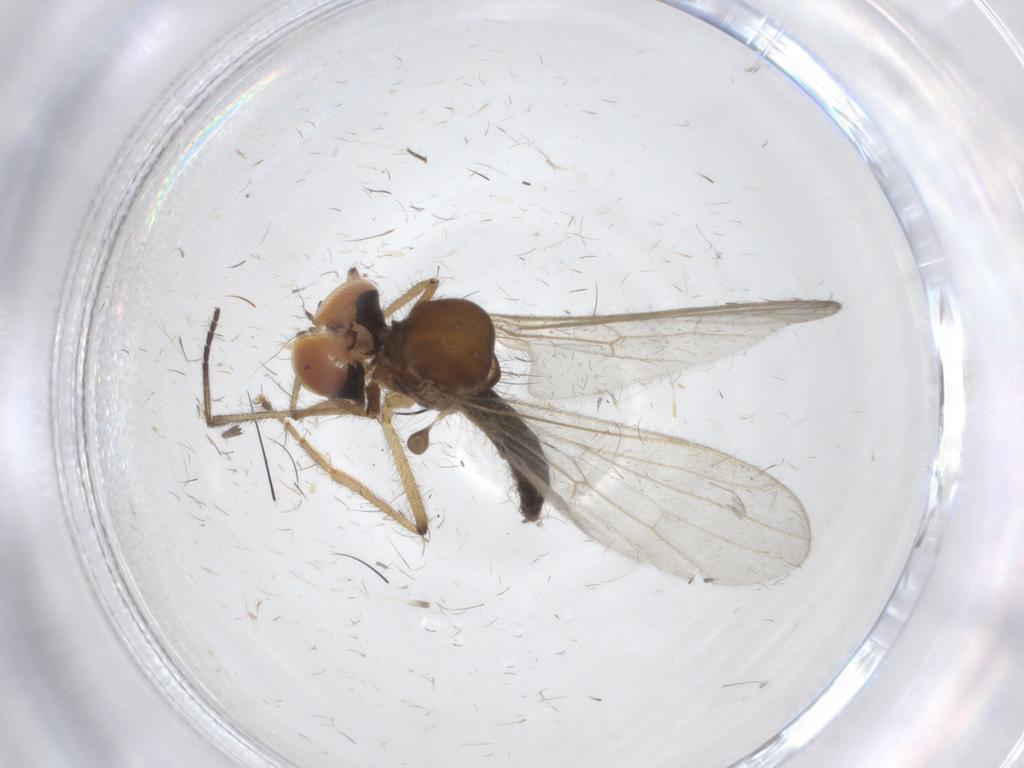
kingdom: Animalia
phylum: Arthropoda
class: Insecta
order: Diptera
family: Hybotidae
